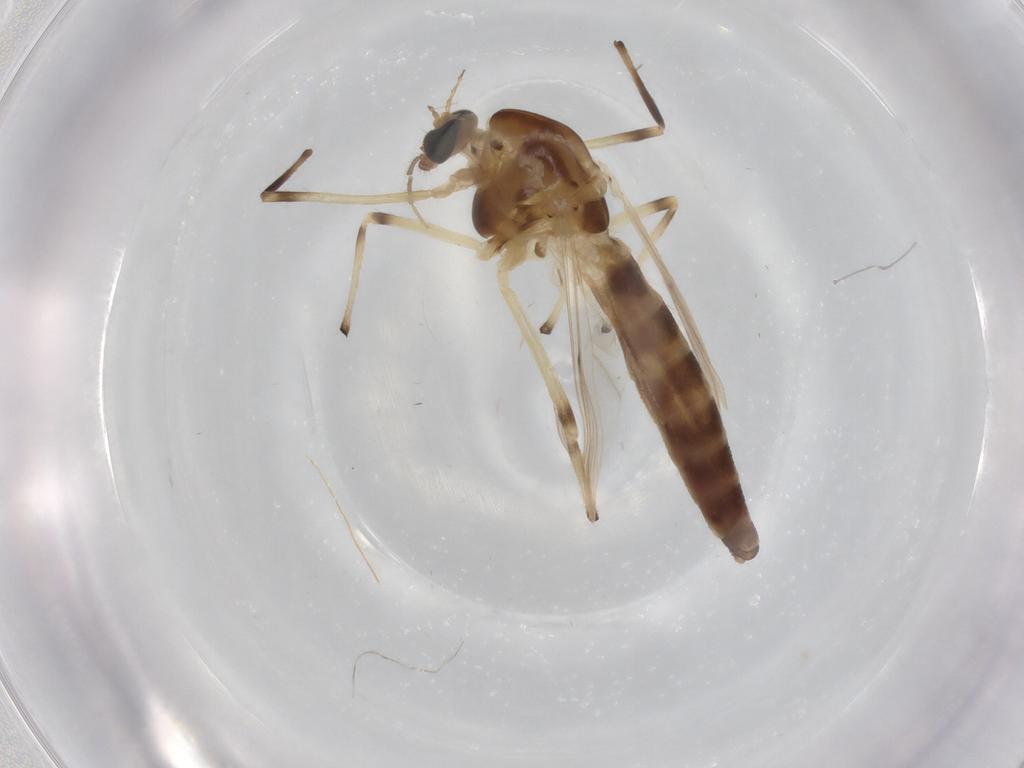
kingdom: Animalia
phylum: Arthropoda
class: Insecta
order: Diptera
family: Chironomidae
